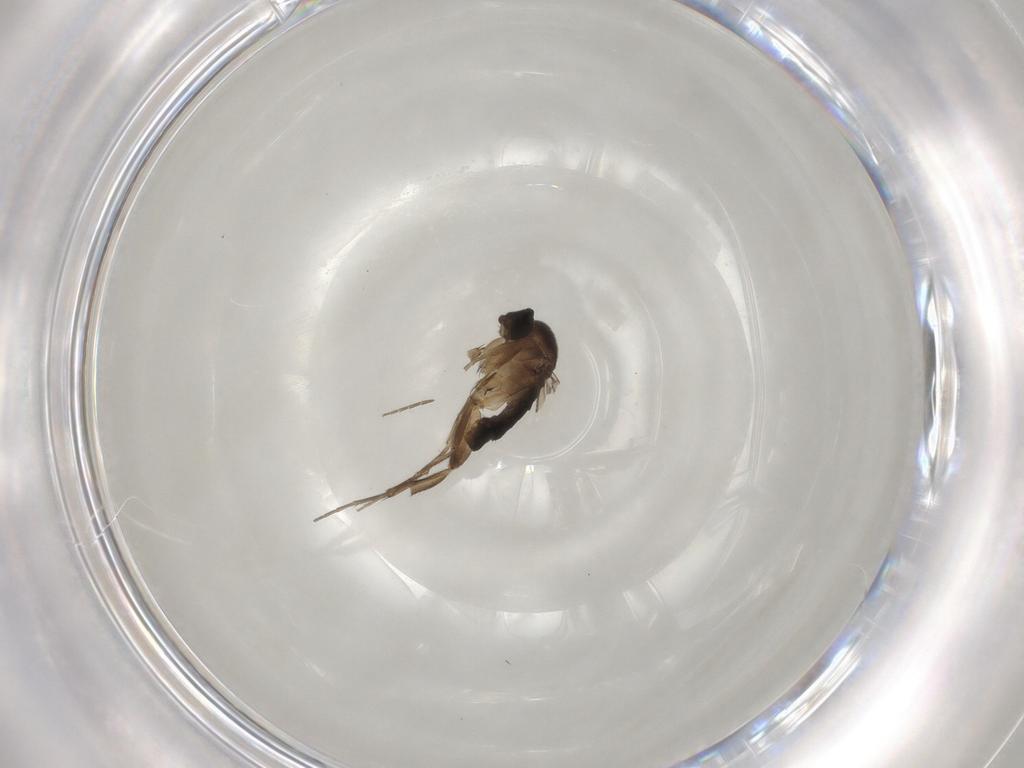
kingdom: Animalia
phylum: Arthropoda
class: Insecta
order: Diptera
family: Phoridae
